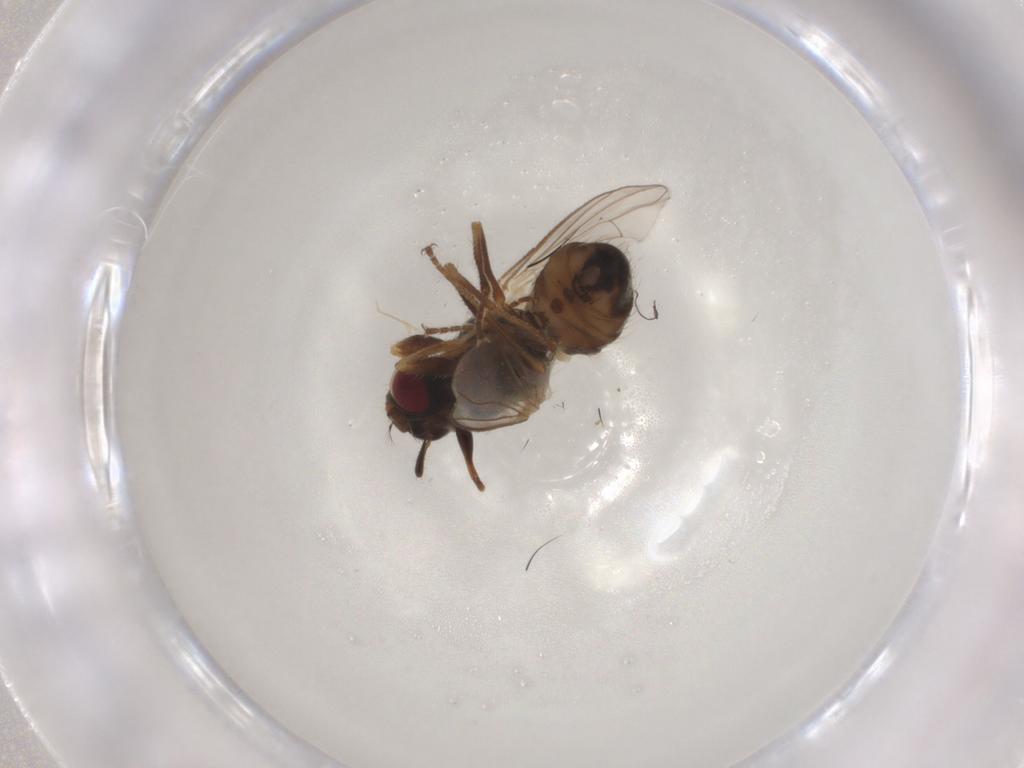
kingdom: Animalia
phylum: Arthropoda
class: Insecta
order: Diptera
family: Cecidomyiidae
